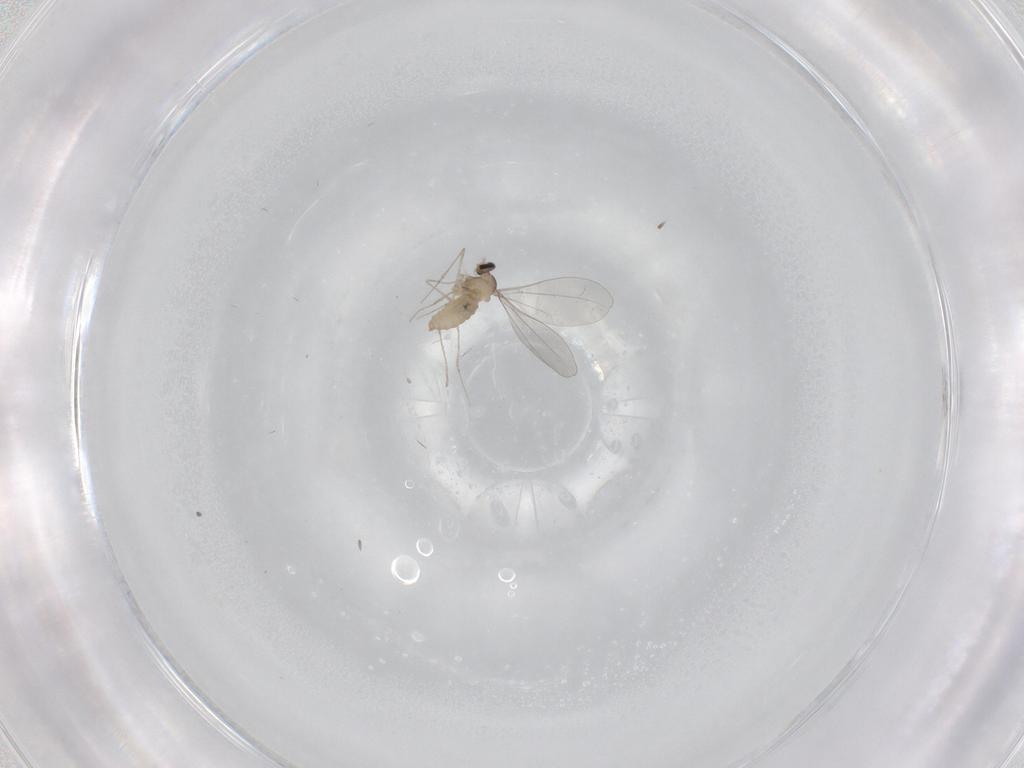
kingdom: Animalia
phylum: Arthropoda
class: Insecta
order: Diptera
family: Cecidomyiidae
